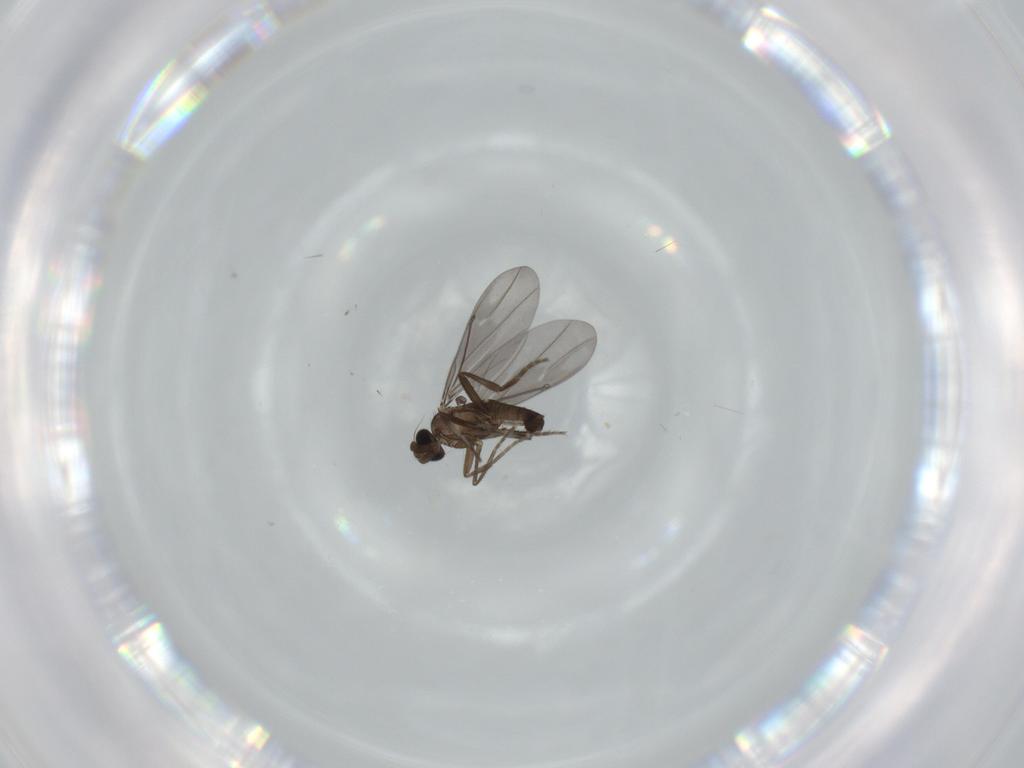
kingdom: Animalia
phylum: Arthropoda
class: Insecta
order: Diptera
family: Phoridae
